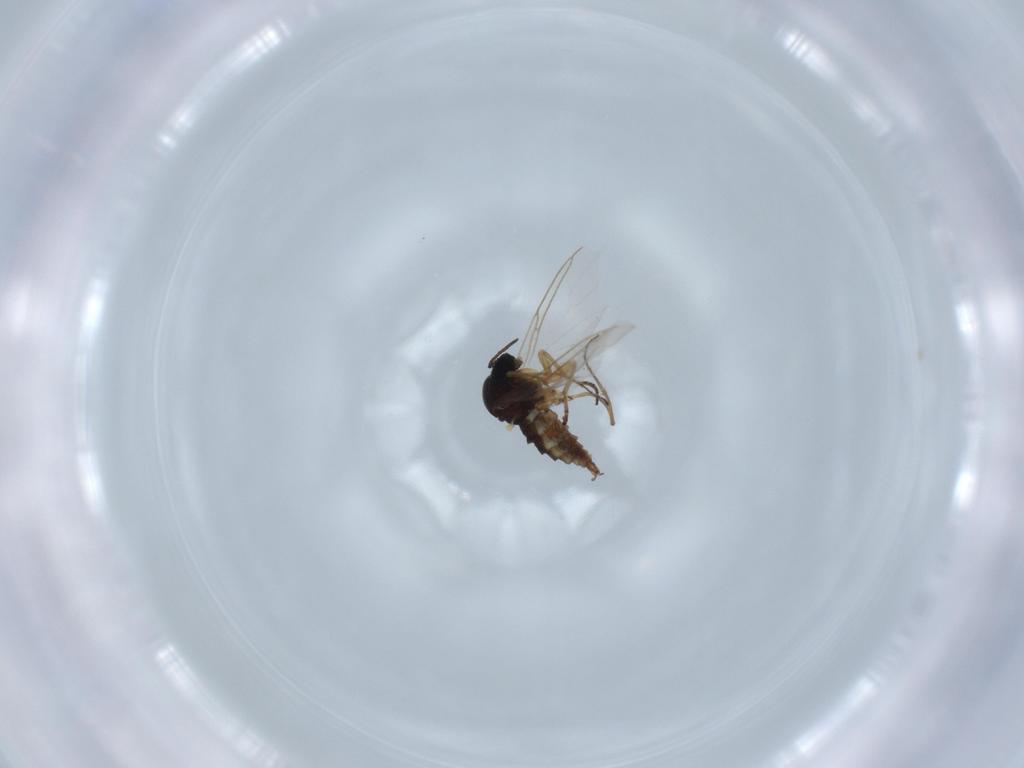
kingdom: Animalia
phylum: Arthropoda
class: Insecta
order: Diptera
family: Sciaridae
